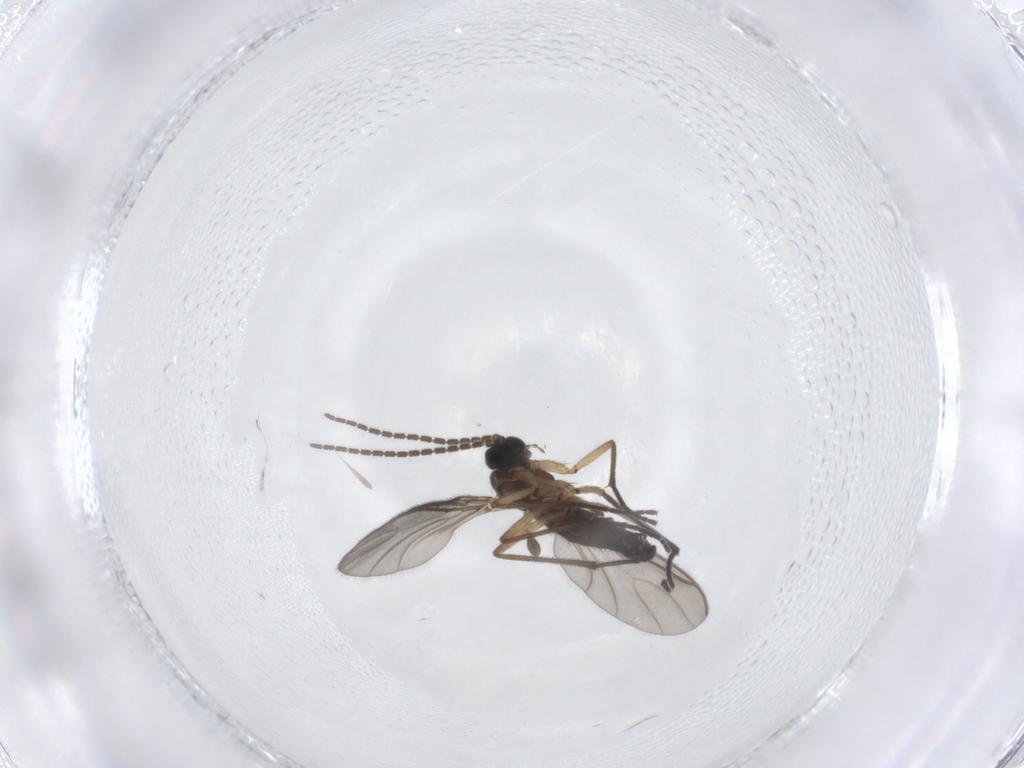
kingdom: Animalia
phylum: Arthropoda
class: Insecta
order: Diptera
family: Sciaridae
